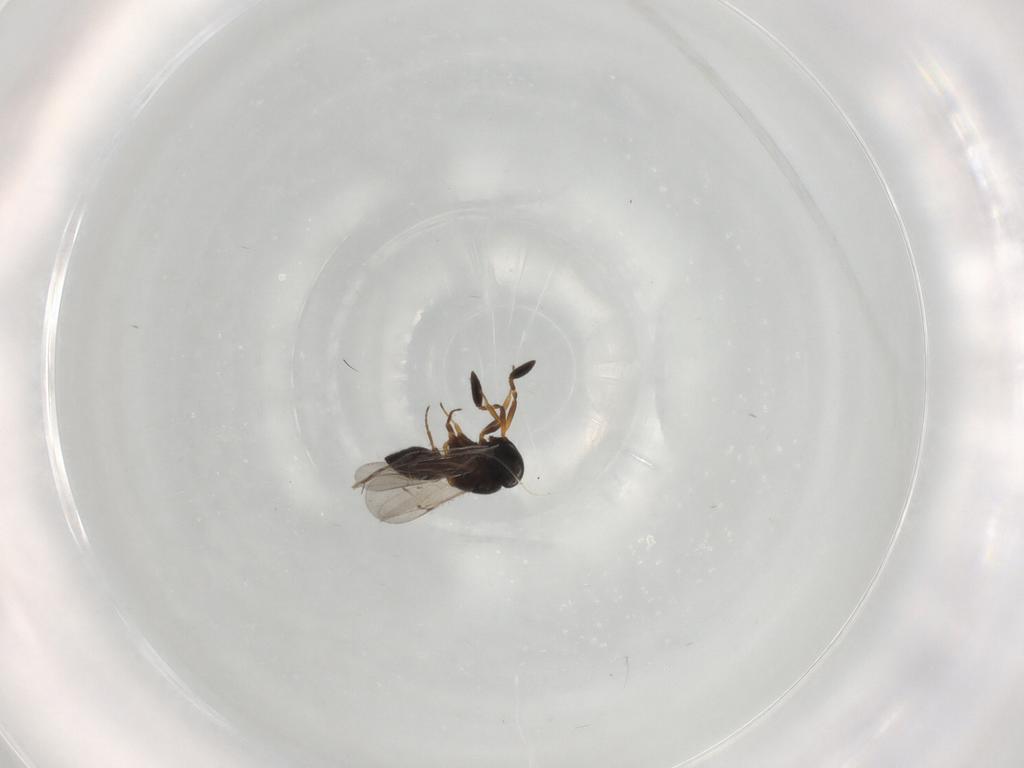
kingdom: Animalia
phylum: Arthropoda
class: Insecta
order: Hymenoptera
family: Scelionidae
